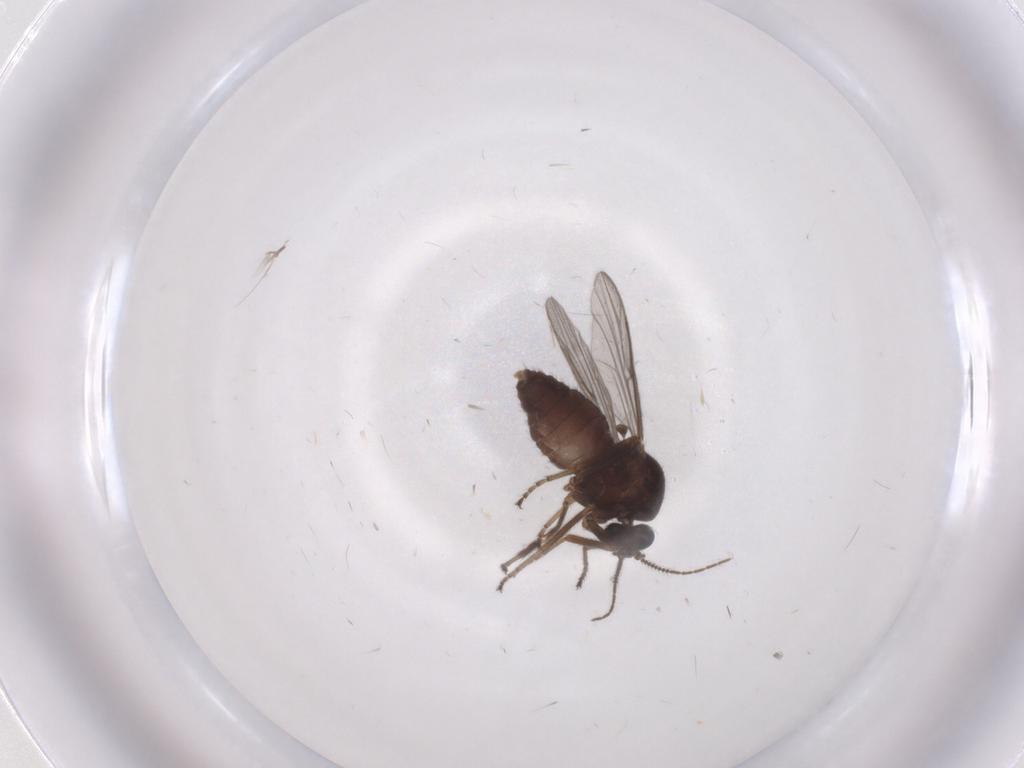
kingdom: Animalia
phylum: Arthropoda
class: Insecta
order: Diptera
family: Ceratopogonidae
